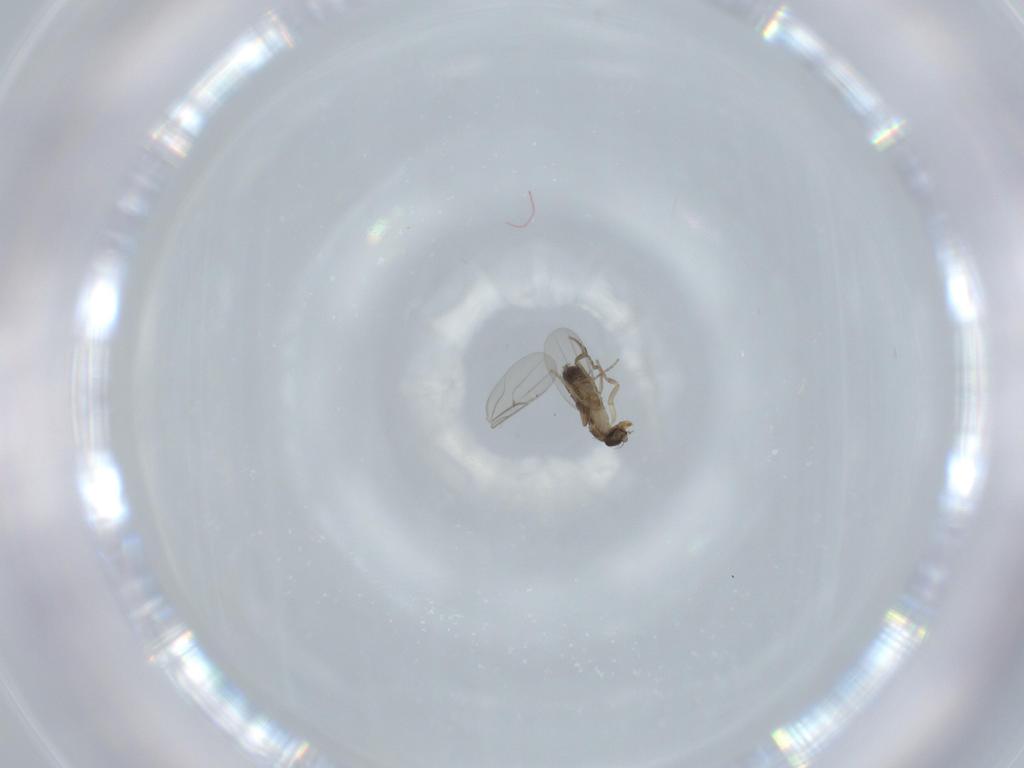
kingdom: Animalia
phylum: Arthropoda
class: Insecta
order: Diptera
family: Phoridae
